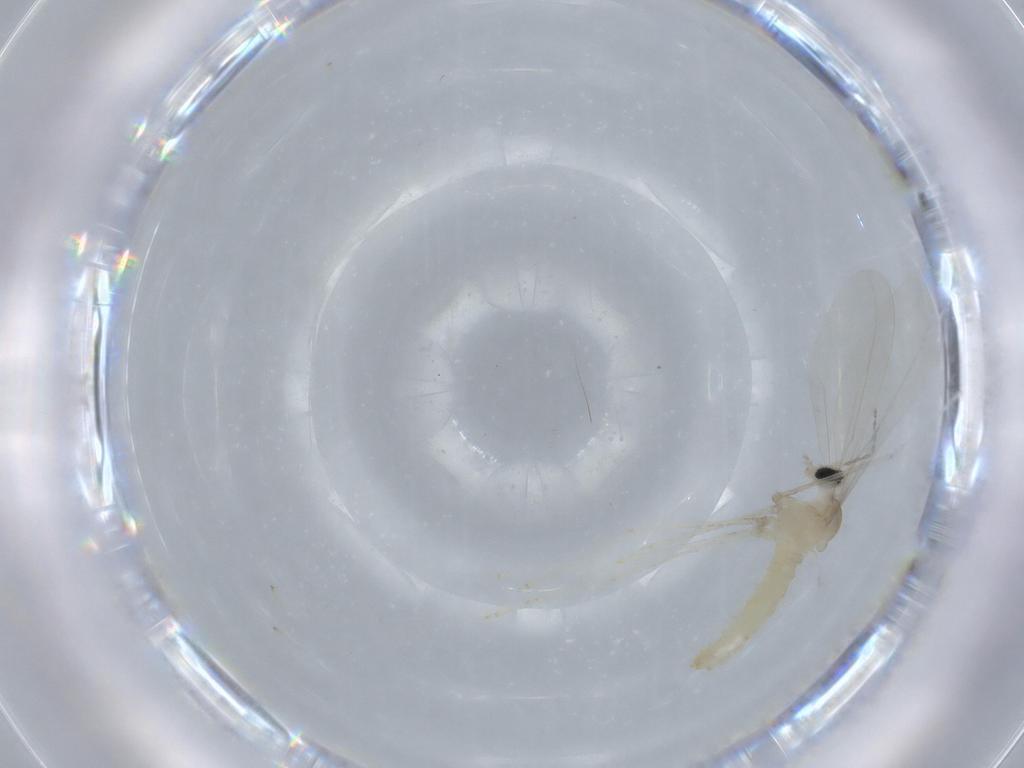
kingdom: Animalia
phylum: Arthropoda
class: Insecta
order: Diptera
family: Cecidomyiidae
